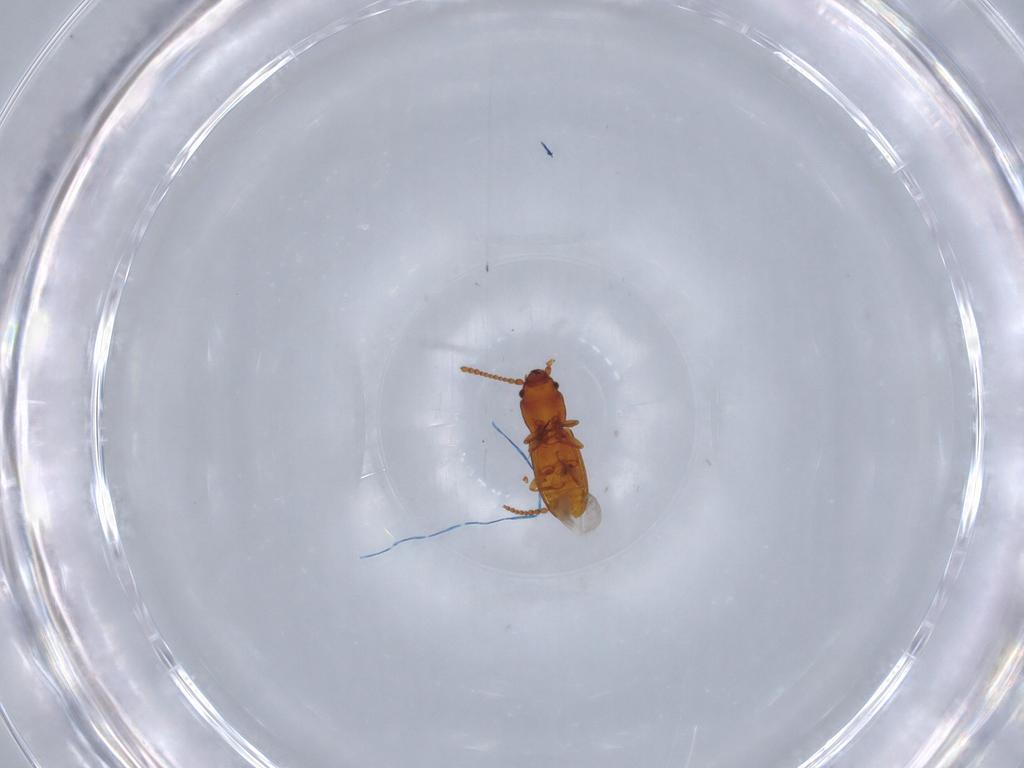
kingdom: Animalia
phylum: Arthropoda
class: Insecta
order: Coleoptera
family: Laemophloeidae
